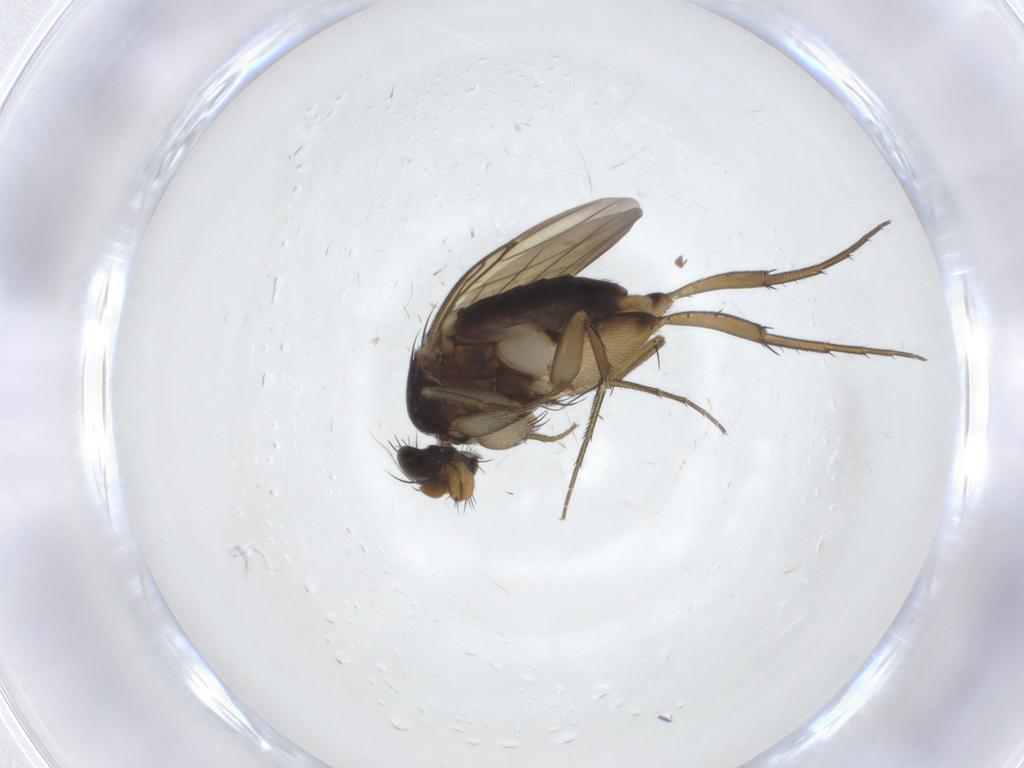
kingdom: Animalia
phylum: Arthropoda
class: Insecta
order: Diptera
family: Phoridae
